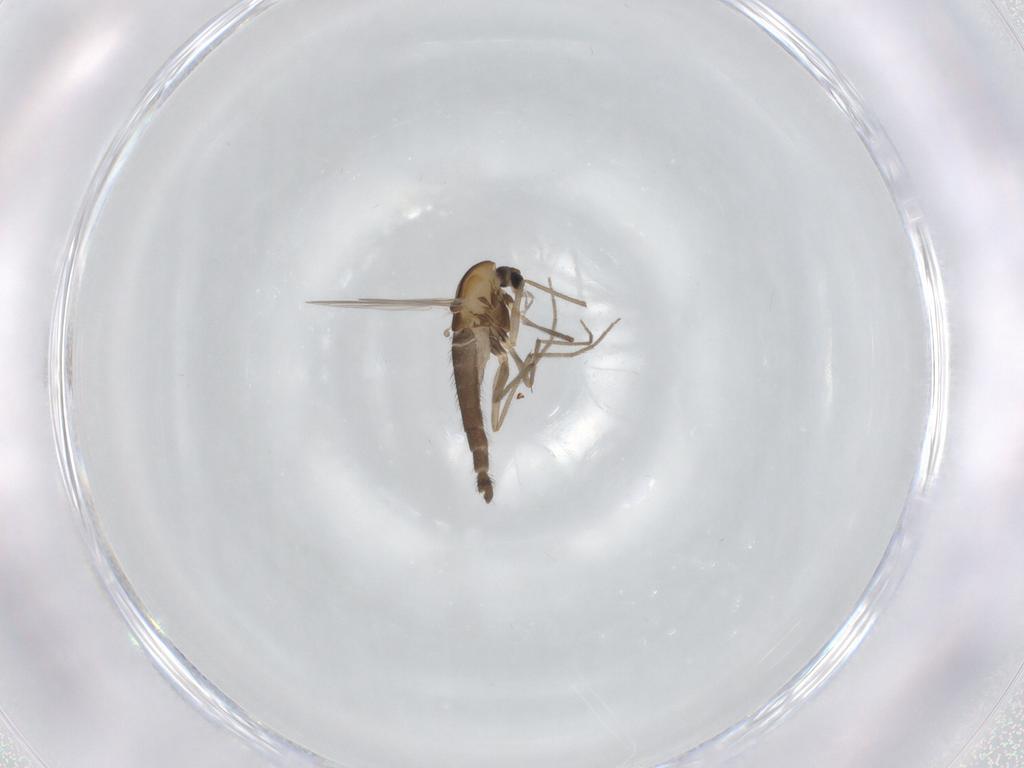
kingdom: Animalia
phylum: Arthropoda
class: Insecta
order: Diptera
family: Chironomidae
